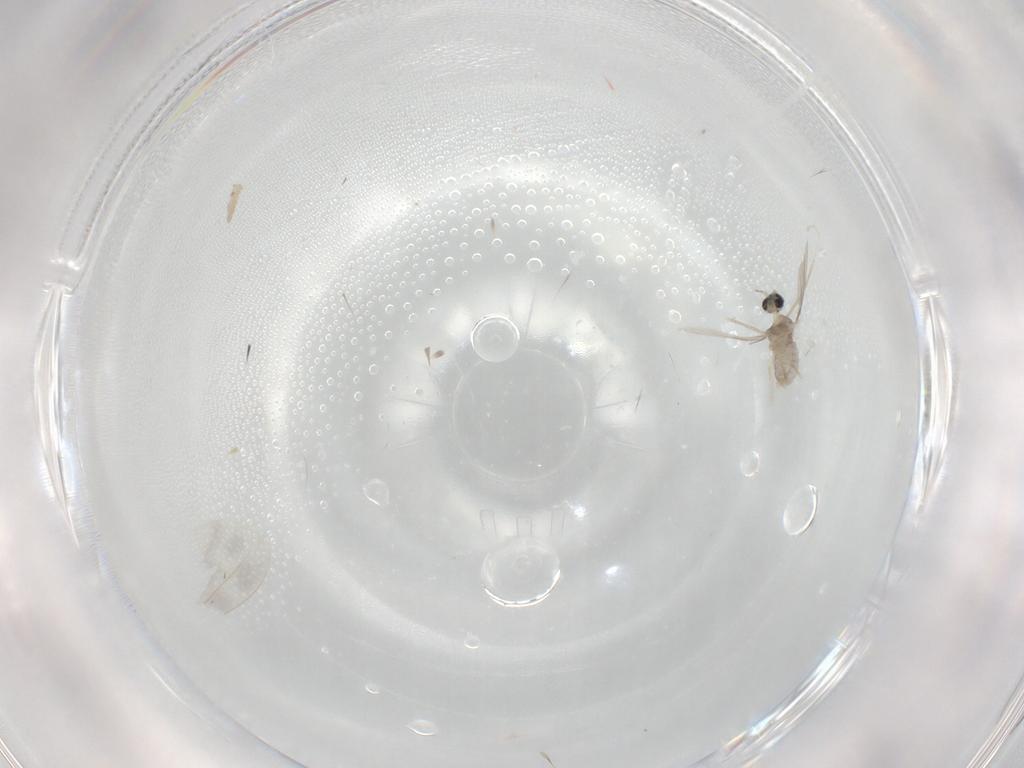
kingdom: Animalia
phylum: Arthropoda
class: Insecta
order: Diptera
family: Cecidomyiidae
